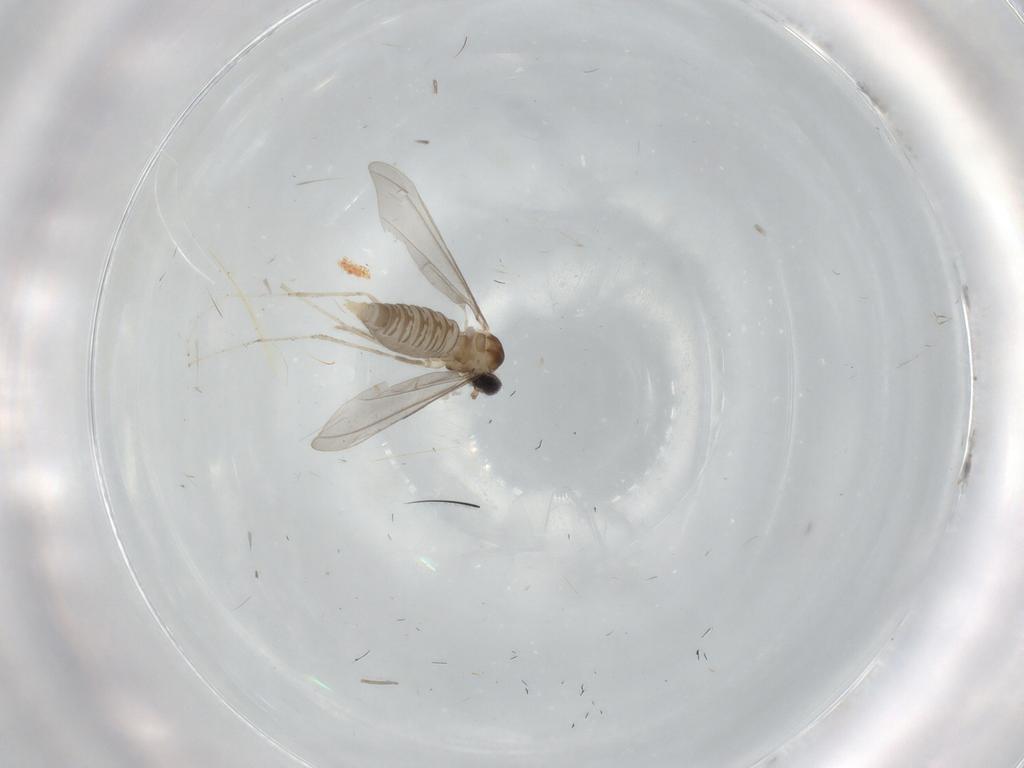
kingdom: Animalia
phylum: Arthropoda
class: Insecta
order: Diptera
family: Cecidomyiidae
